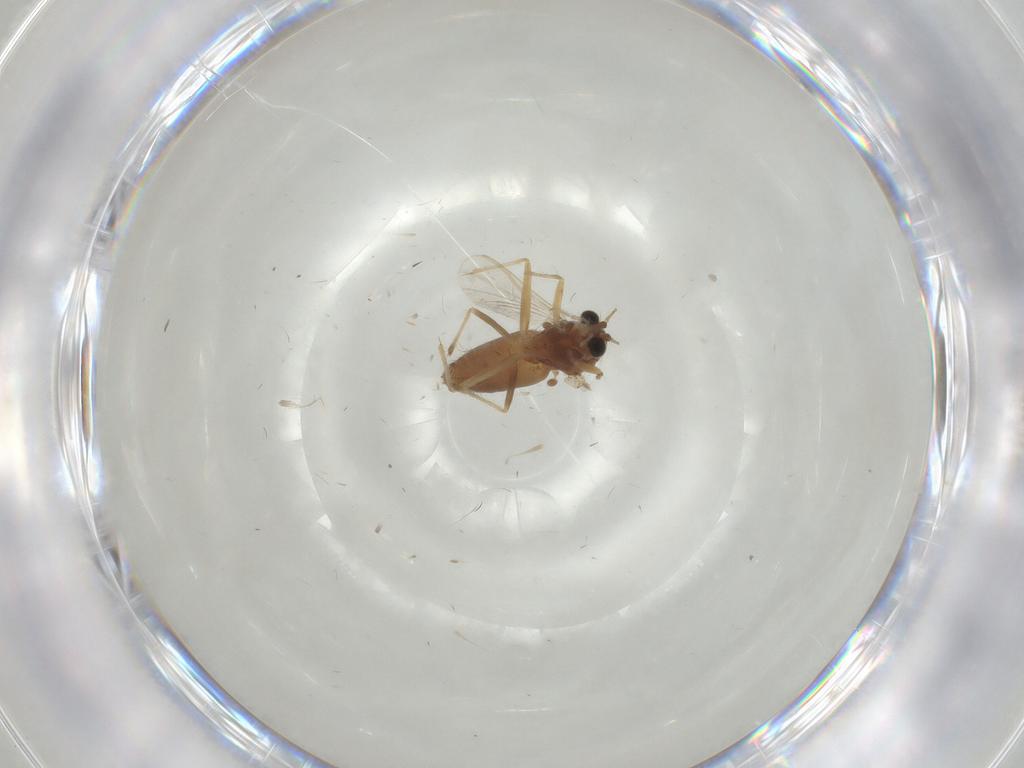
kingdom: Animalia
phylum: Arthropoda
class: Insecta
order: Diptera
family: Chironomidae
